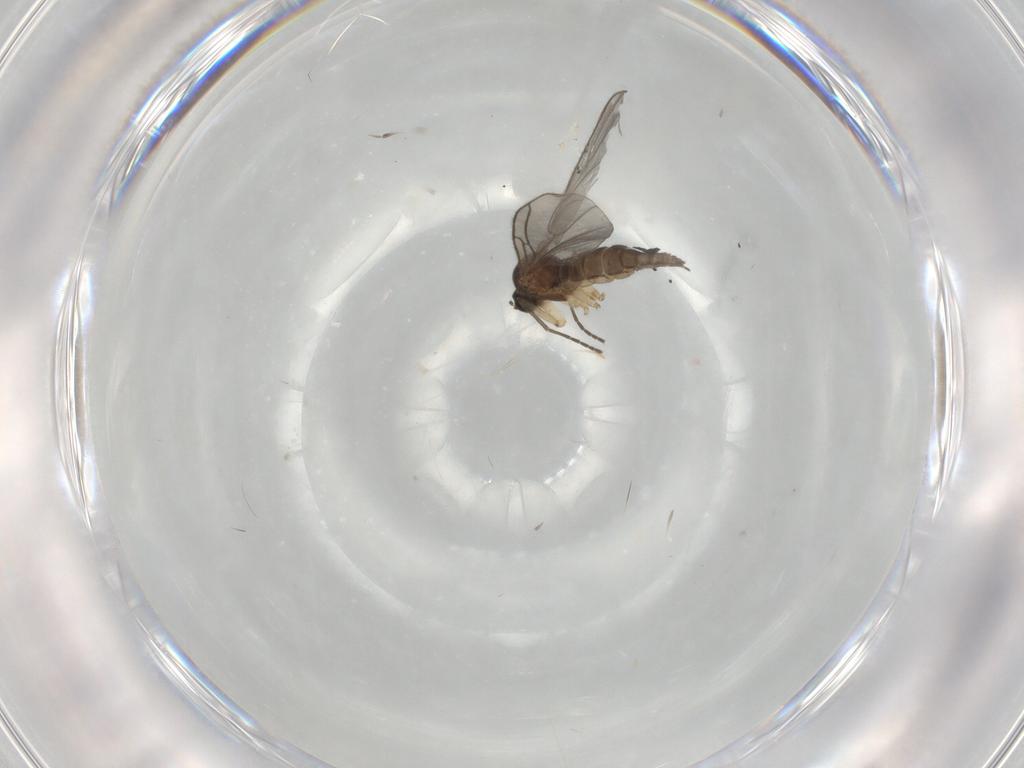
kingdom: Animalia
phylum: Arthropoda
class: Insecta
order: Diptera
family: Sciaridae
